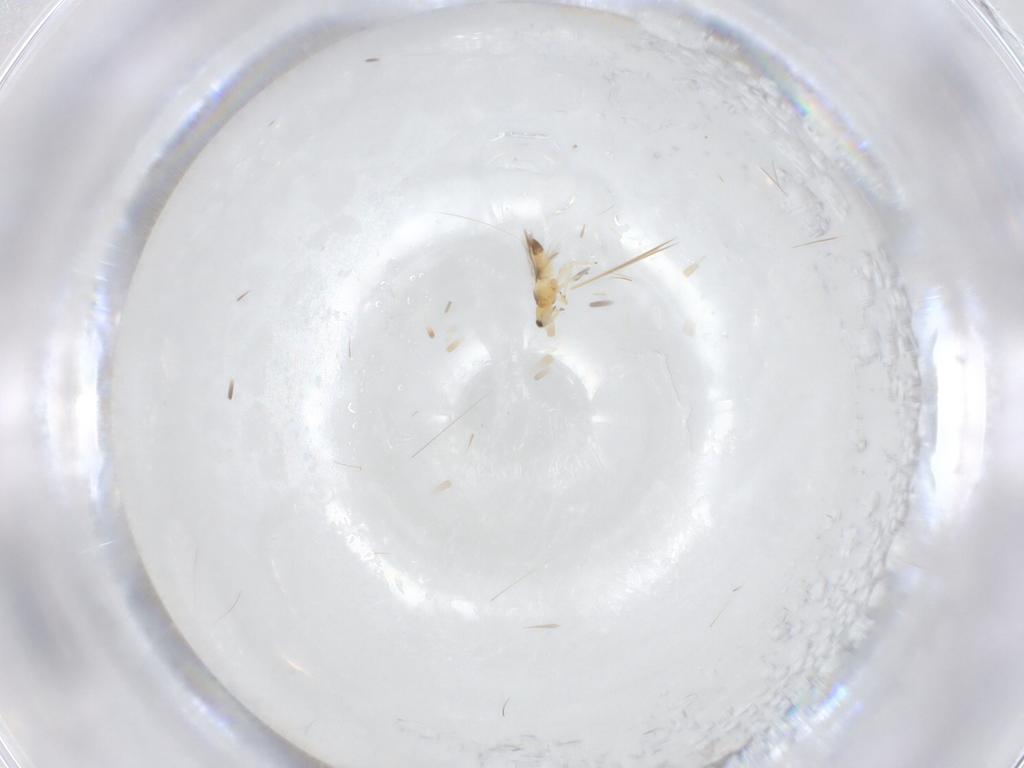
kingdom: Animalia
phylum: Arthropoda
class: Insecta
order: Thysanoptera
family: Thripidae
